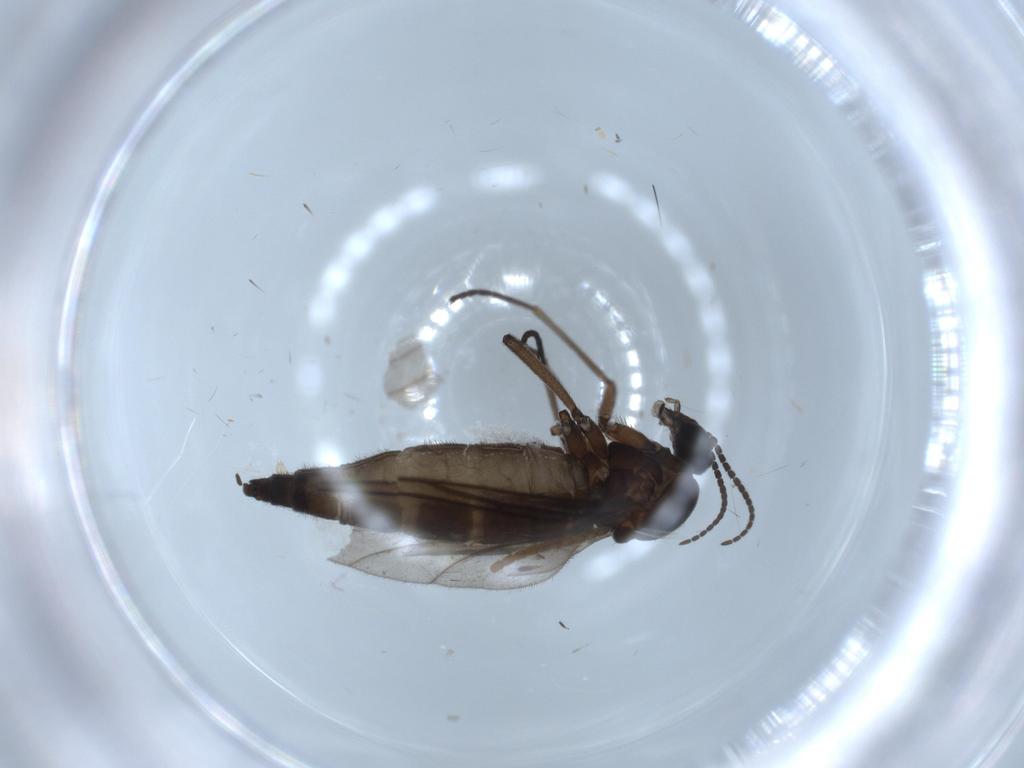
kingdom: Animalia
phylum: Arthropoda
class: Insecta
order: Diptera
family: Sciaridae
